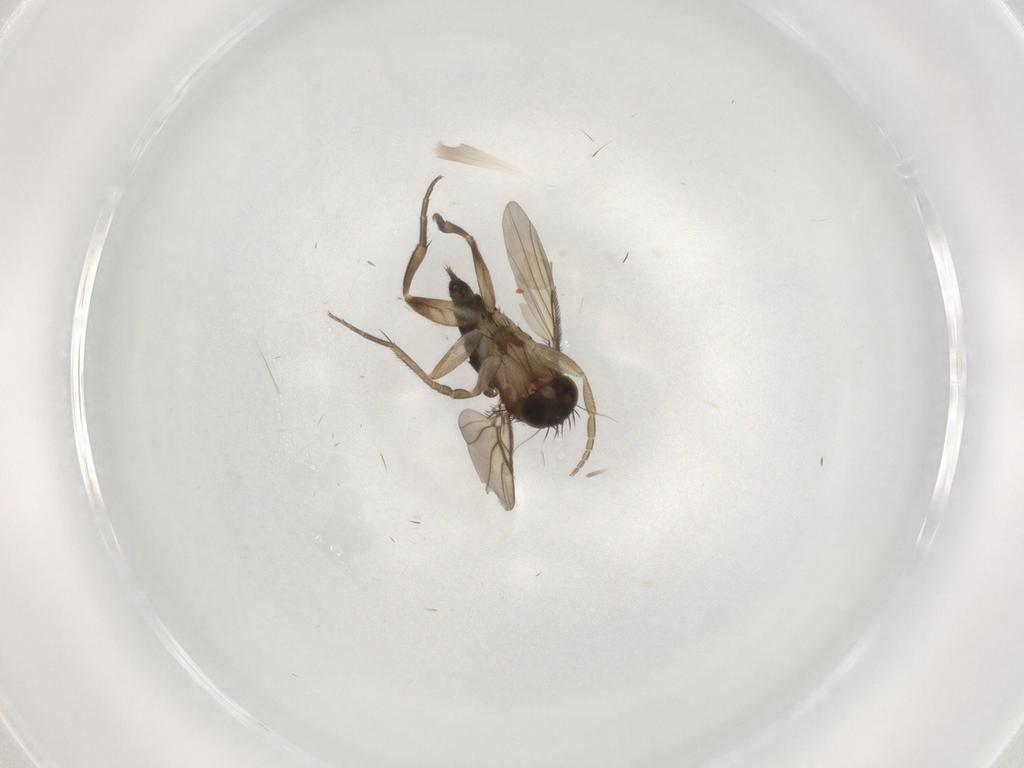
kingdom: Animalia
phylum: Arthropoda
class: Insecta
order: Diptera
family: Phoridae
